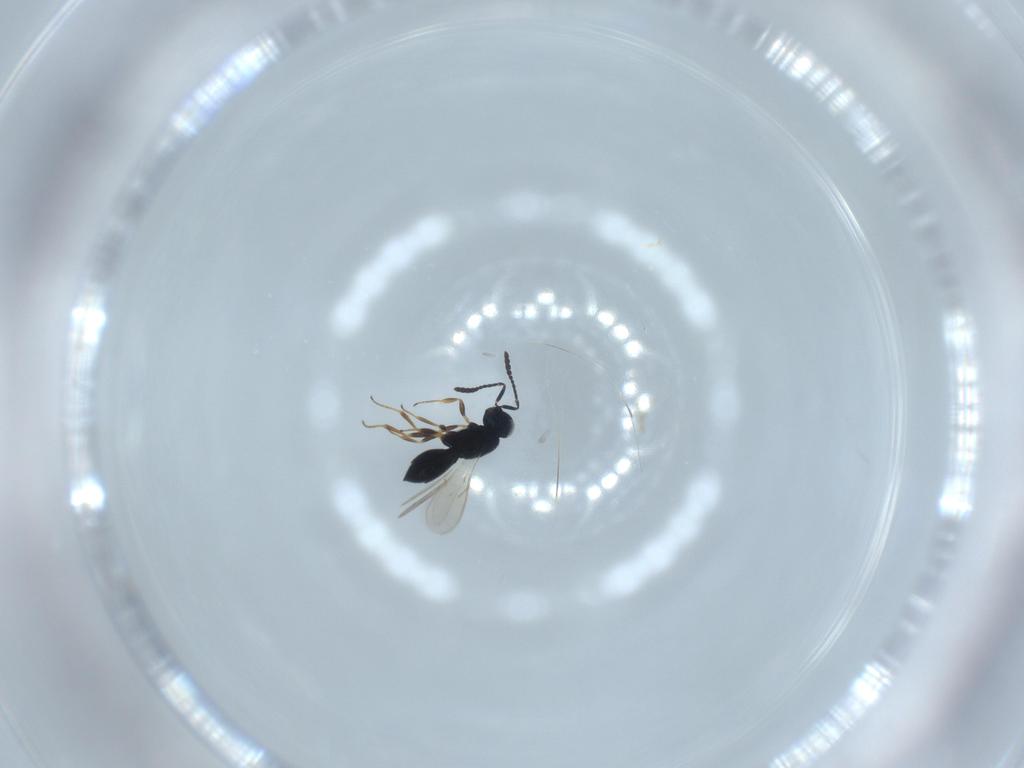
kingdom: Animalia
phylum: Arthropoda
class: Insecta
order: Hymenoptera
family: Scelionidae
